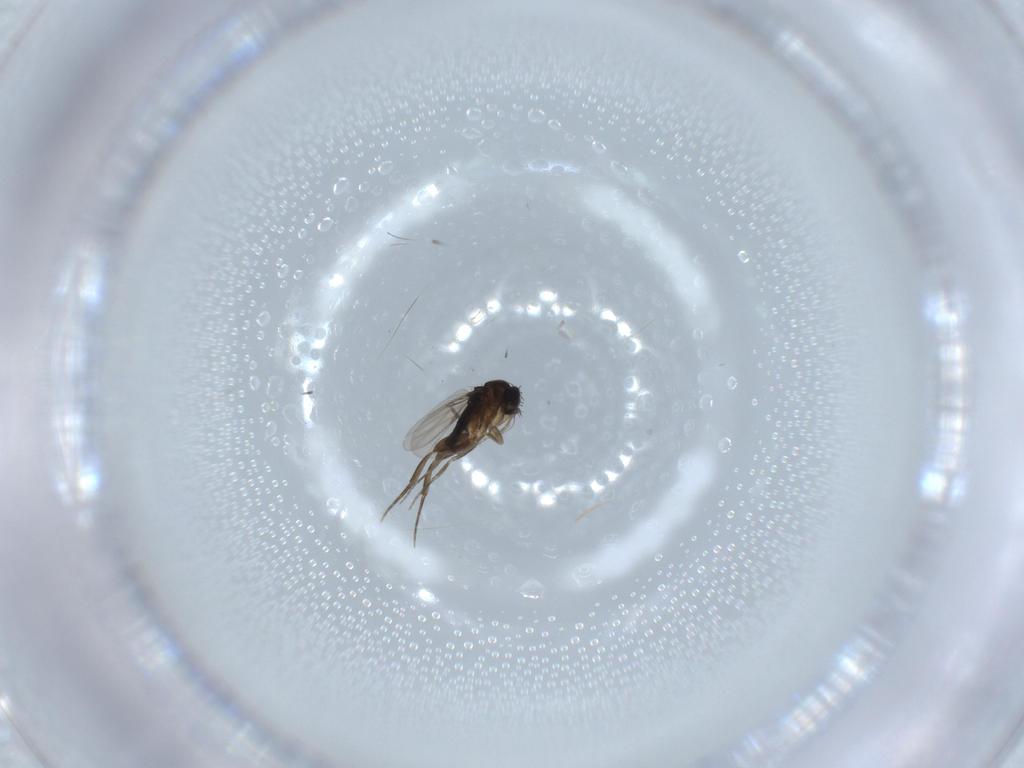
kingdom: Animalia
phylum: Arthropoda
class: Insecta
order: Diptera
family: Phoridae
